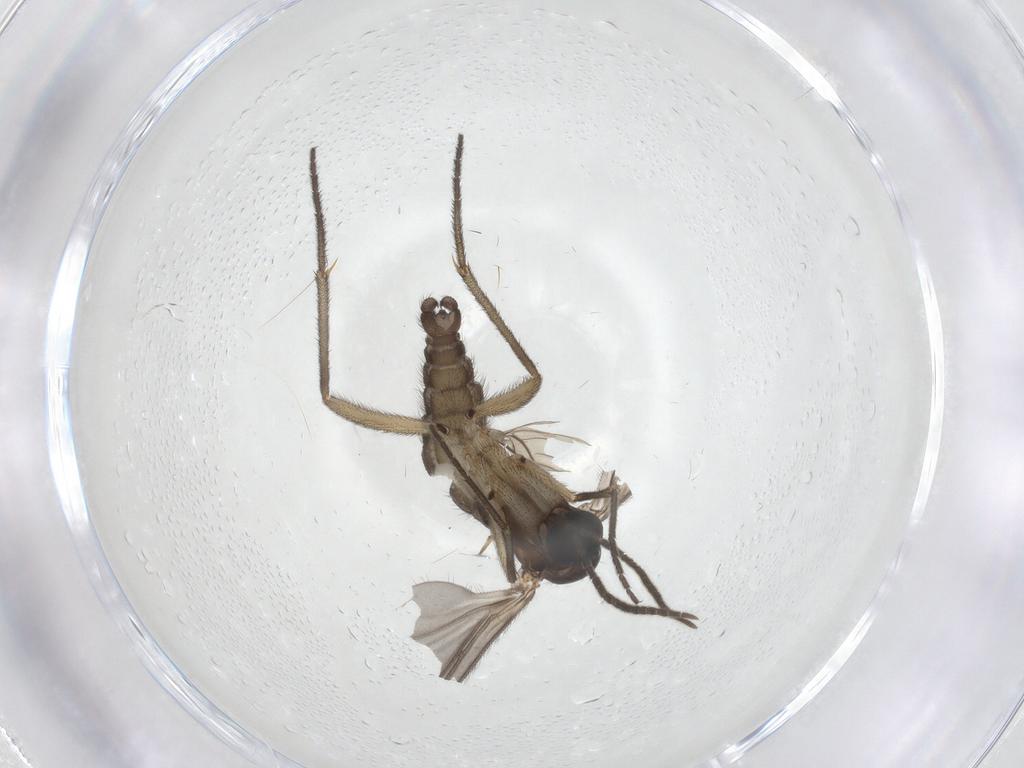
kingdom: Animalia
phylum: Arthropoda
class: Insecta
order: Diptera
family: Sciaridae
